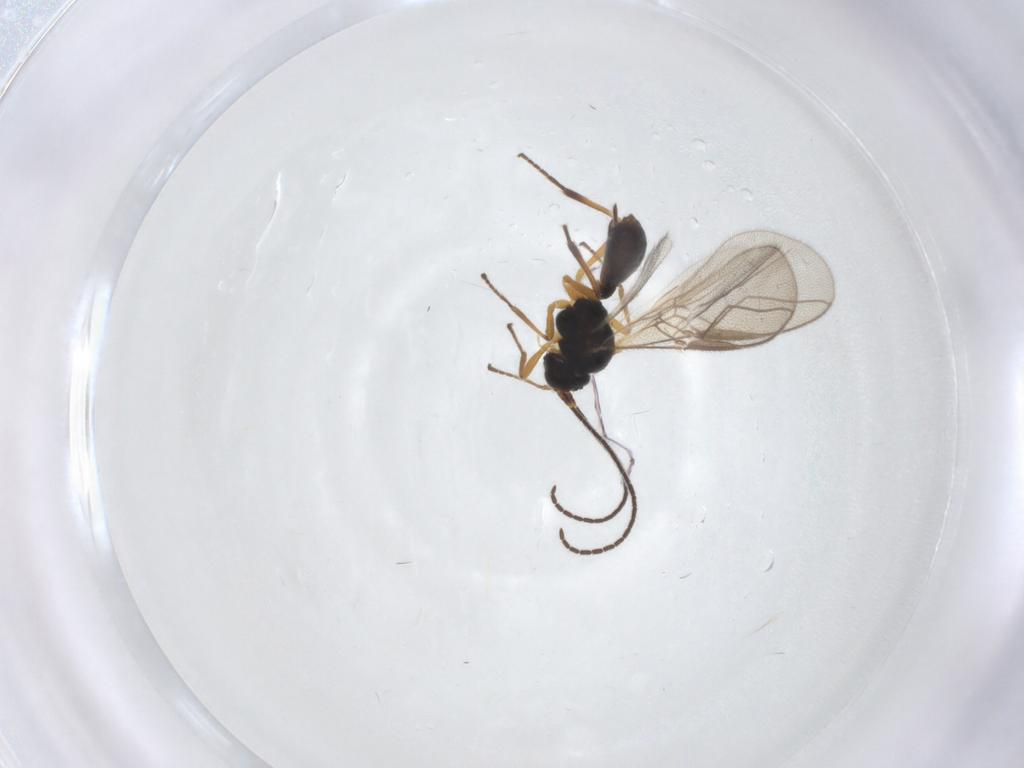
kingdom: Animalia
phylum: Arthropoda
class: Insecta
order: Hymenoptera
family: Braconidae
